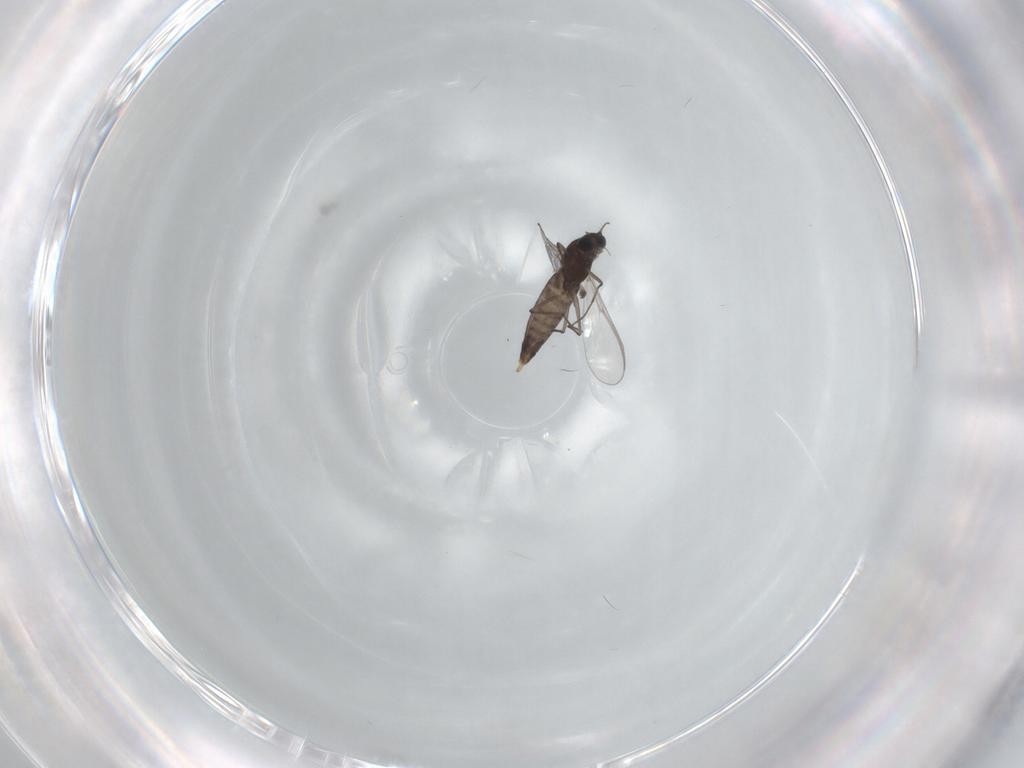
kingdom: Animalia
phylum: Arthropoda
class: Insecta
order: Diptera
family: Chironomidae
